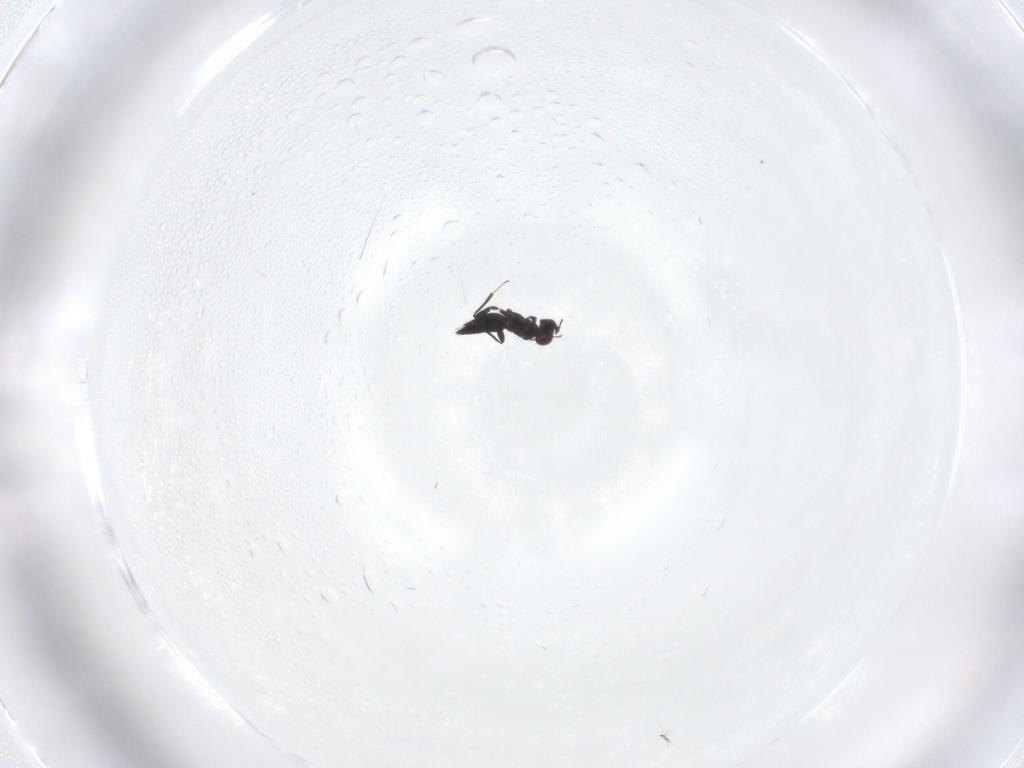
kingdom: Animalia
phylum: Arthropoda
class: Insecta
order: Hymenoptera
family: Mymaridae
